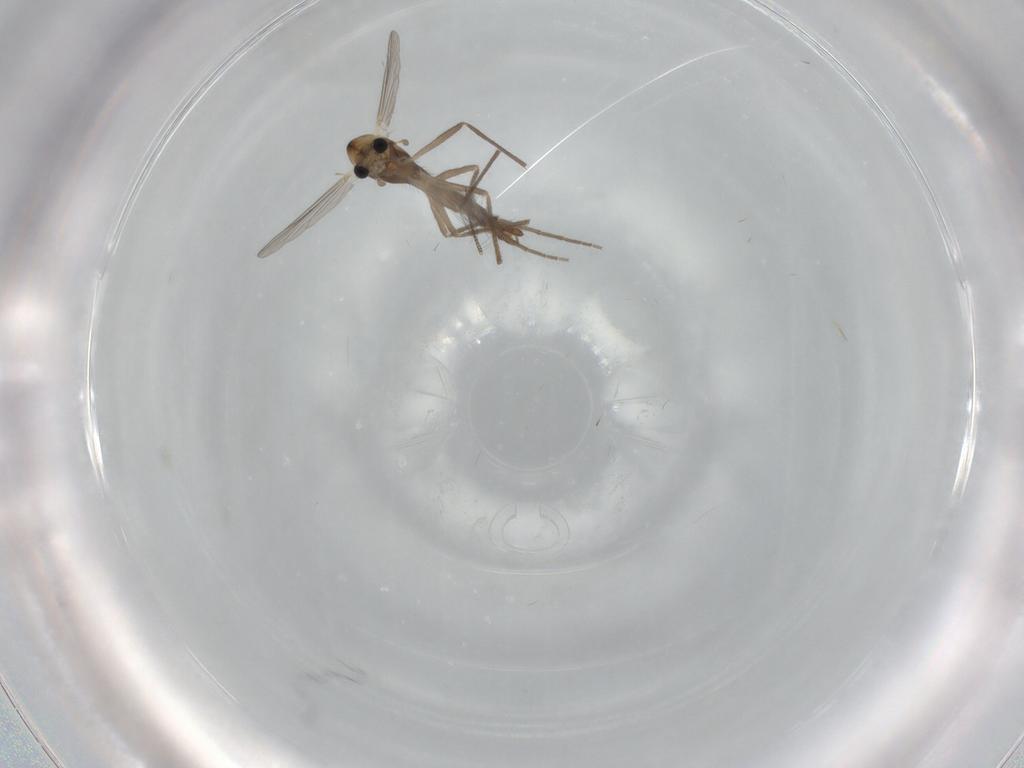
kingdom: Animalia
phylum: Arthropoda
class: Insecta
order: Diptera
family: Chironomidae
